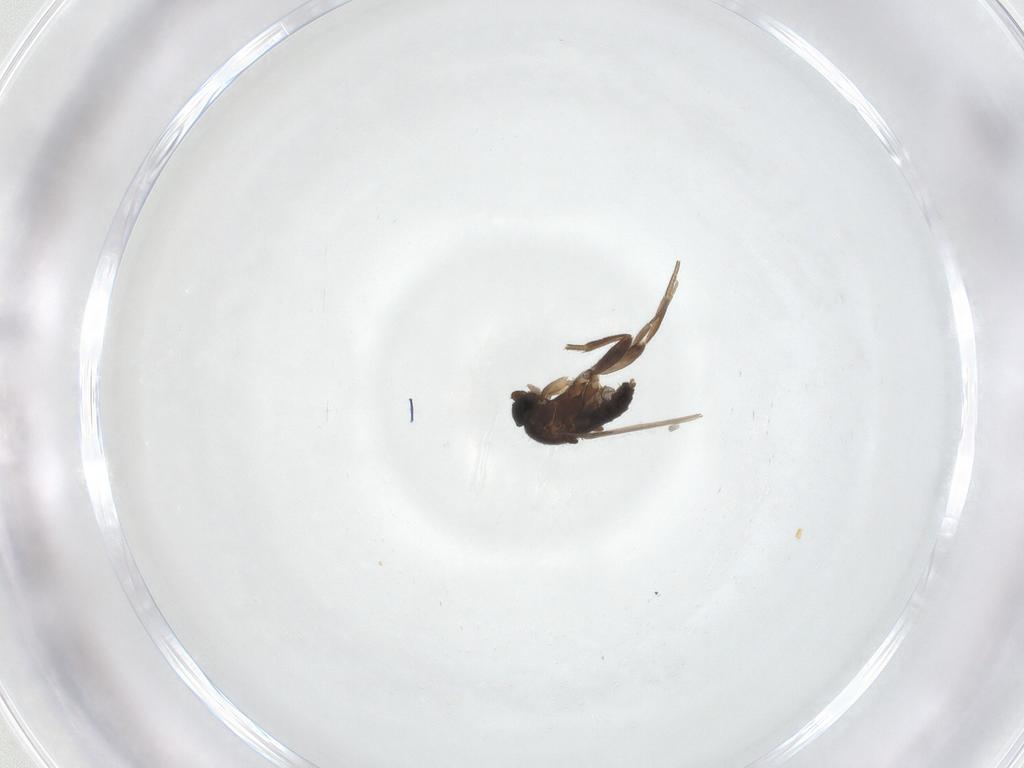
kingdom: Animalia
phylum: Arthropoda
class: Insecta
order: Diptera
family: Phoridae
